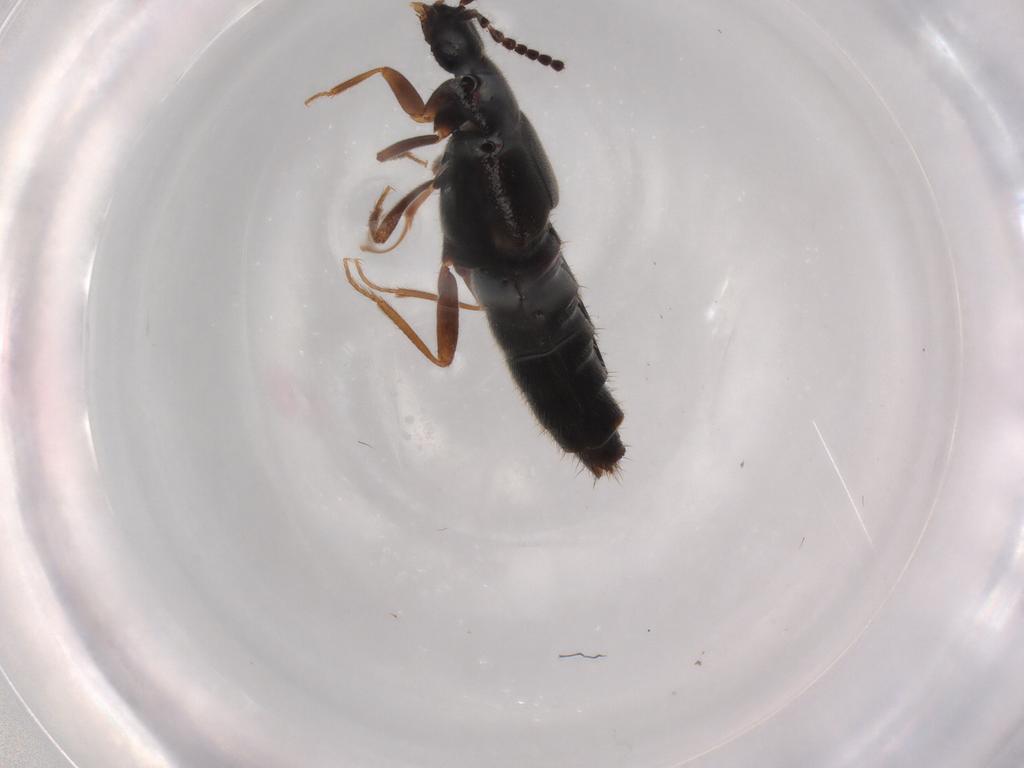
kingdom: Animalia
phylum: Arthropoda
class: Insecta
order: Coleoptera
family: Staphylinidae
